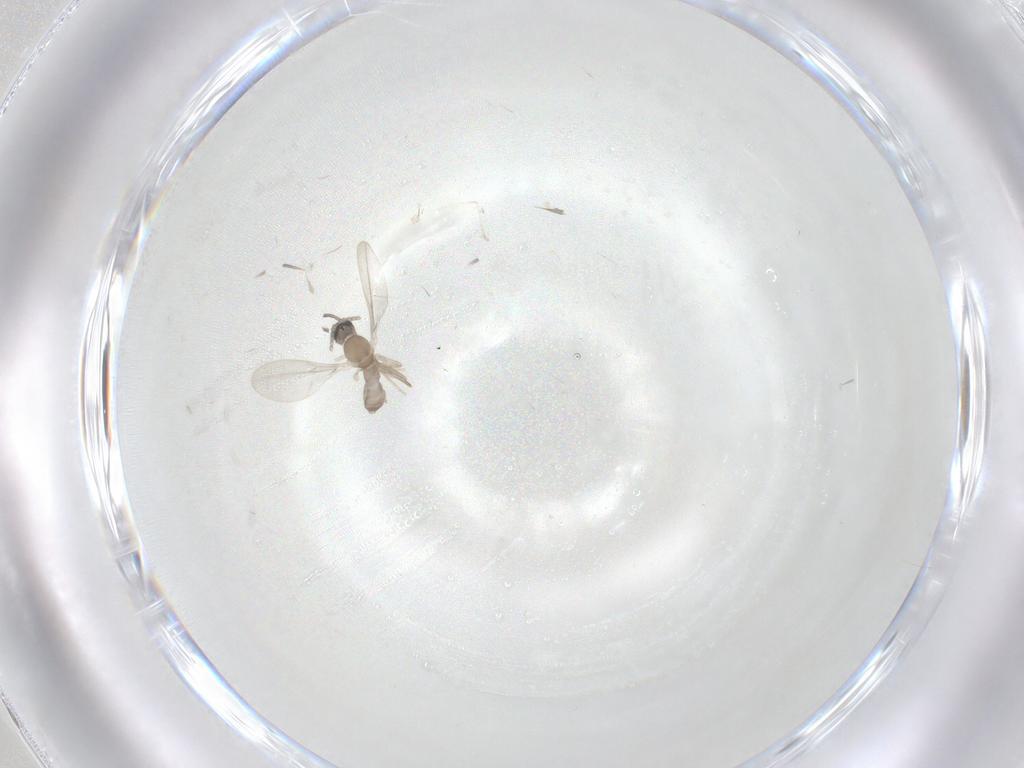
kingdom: Animalia
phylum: Arthropoda
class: Insecta
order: Diptera
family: Cecidomyiidae
